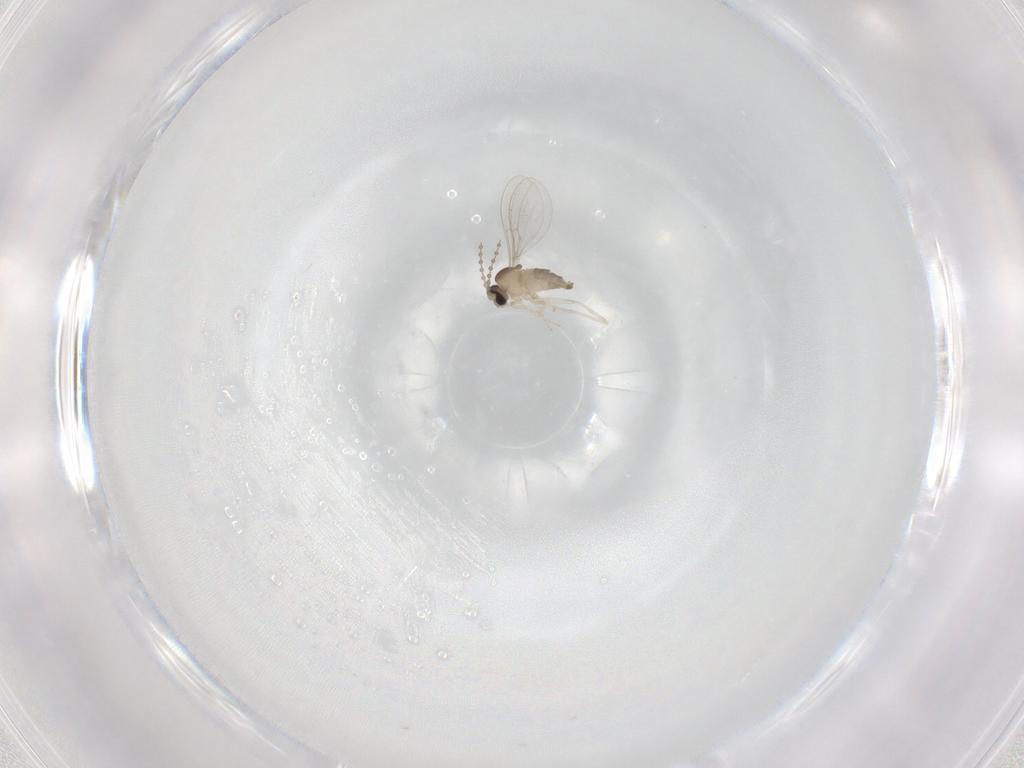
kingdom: Animalia
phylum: Arthropoda
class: Insecta
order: Diptera
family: Cecidomyiidae
